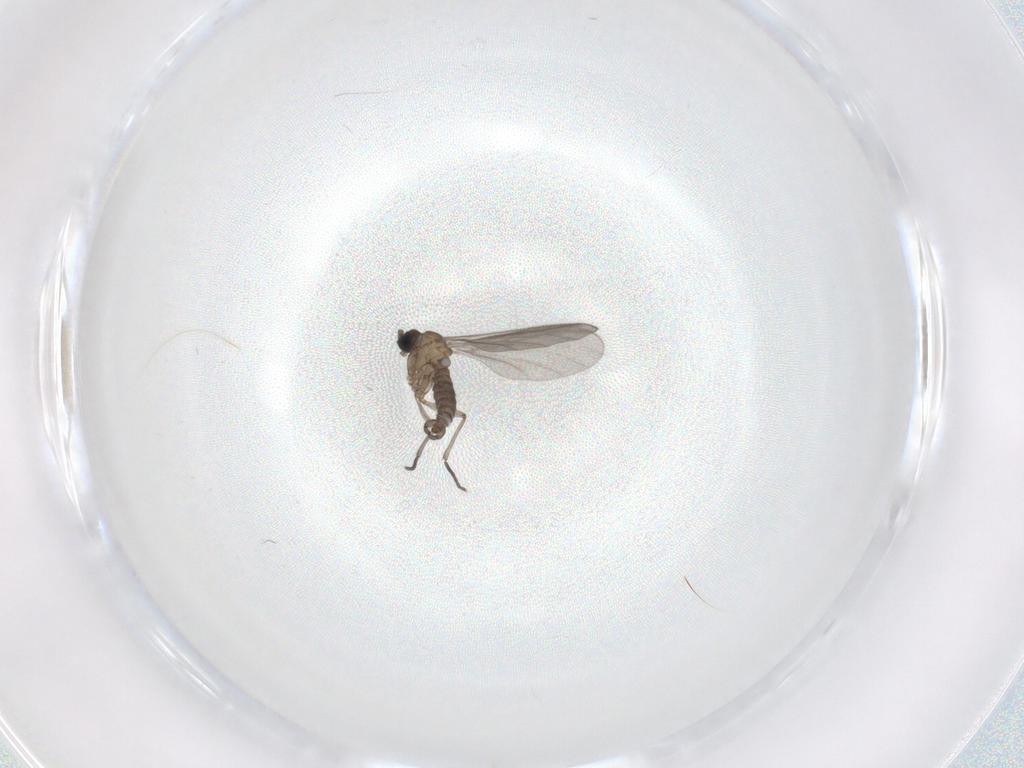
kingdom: Animalia
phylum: Arthropoda
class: Insecta
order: Diptera
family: Sciaridae
